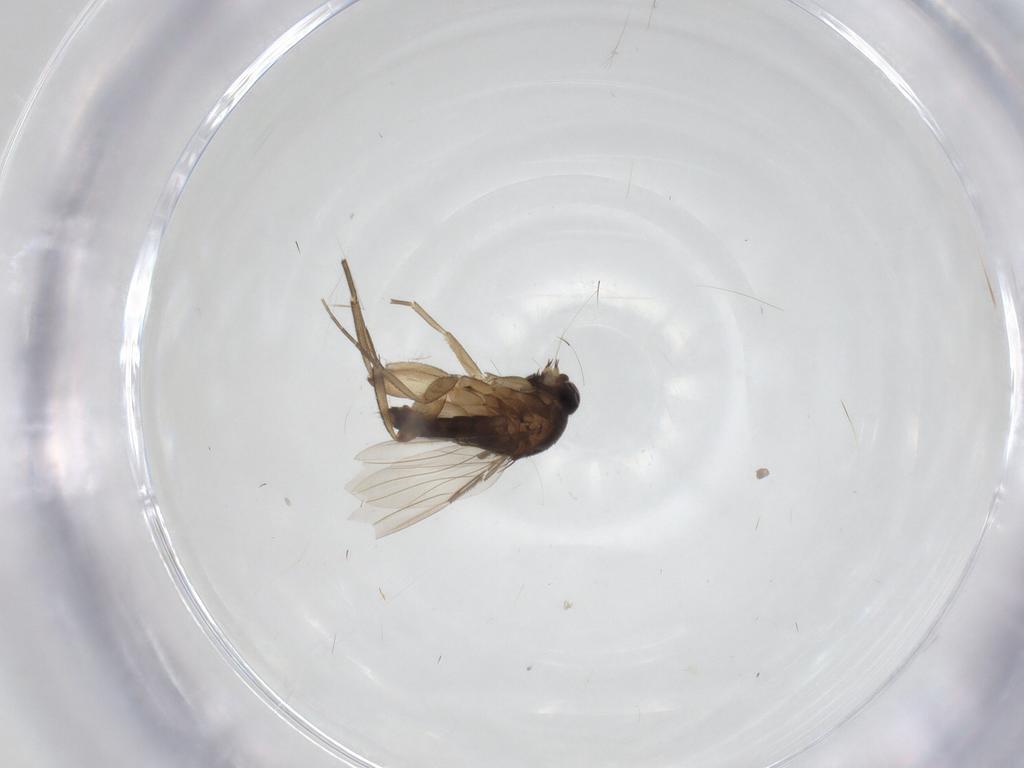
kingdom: Animalia
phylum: Arthropoda
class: Insecta
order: Diptera
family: Phoridae
